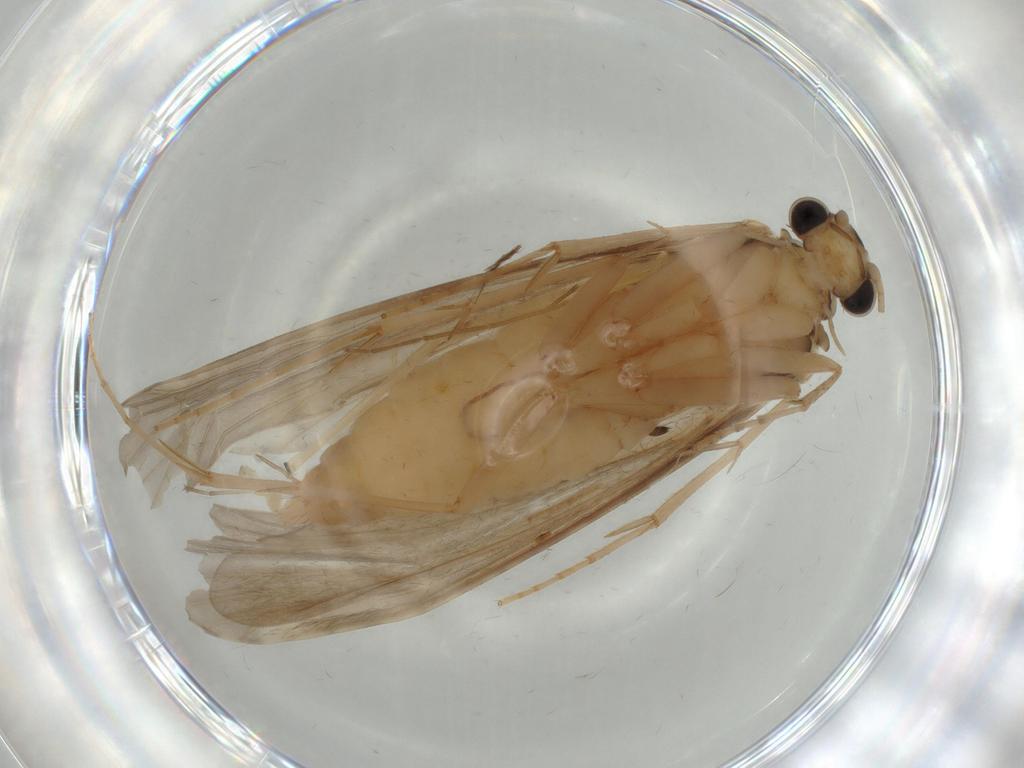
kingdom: Animalia
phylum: Arthropoda
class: Insecta
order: Trichoptera
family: Ecnomidae
